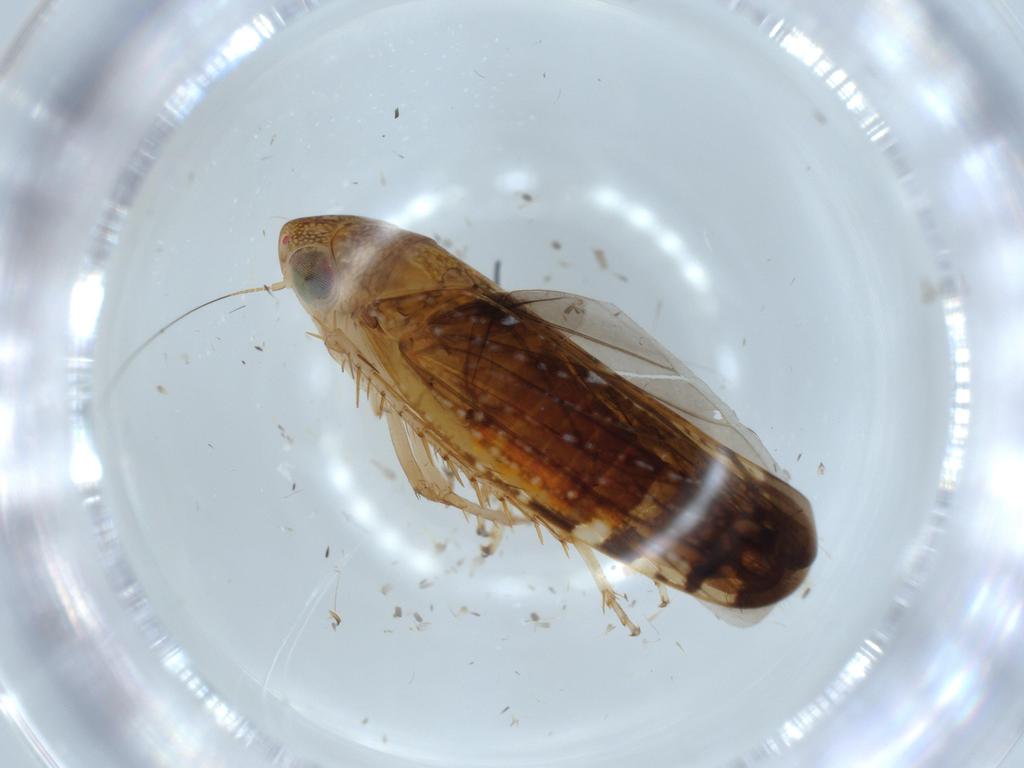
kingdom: Animalia
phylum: Arthropoda
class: Insecta
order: Hemiptera
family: Cicadellidae
